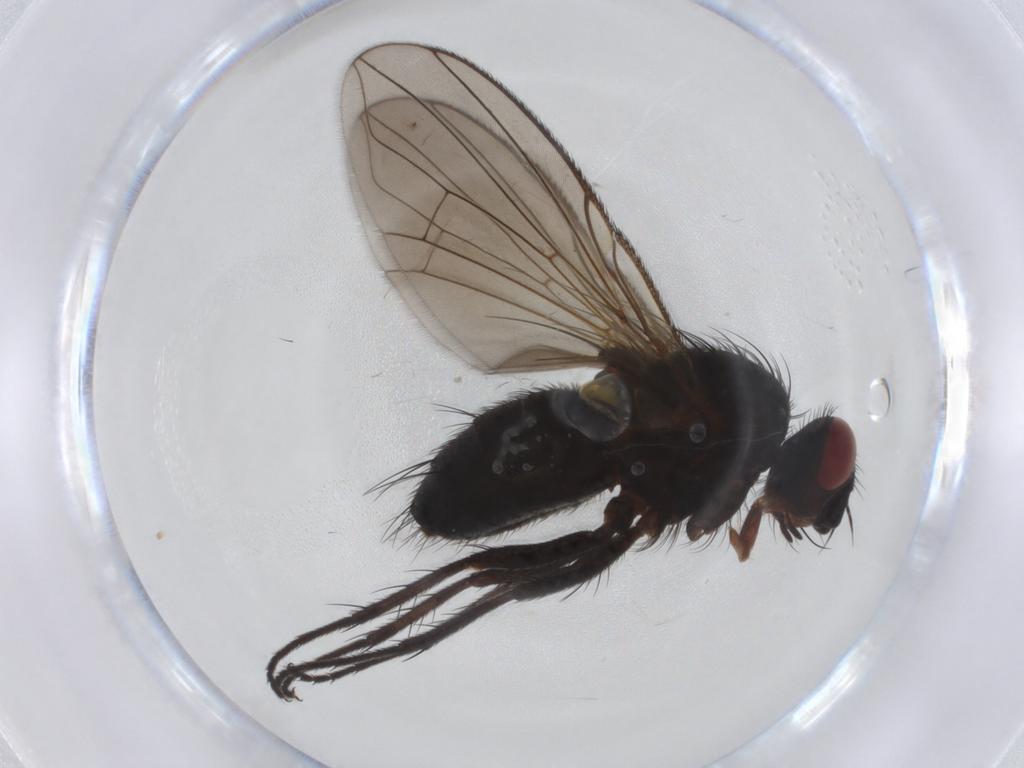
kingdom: Animalia
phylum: Arthropoda
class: Insecta
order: Diptera
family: Tachinidae
